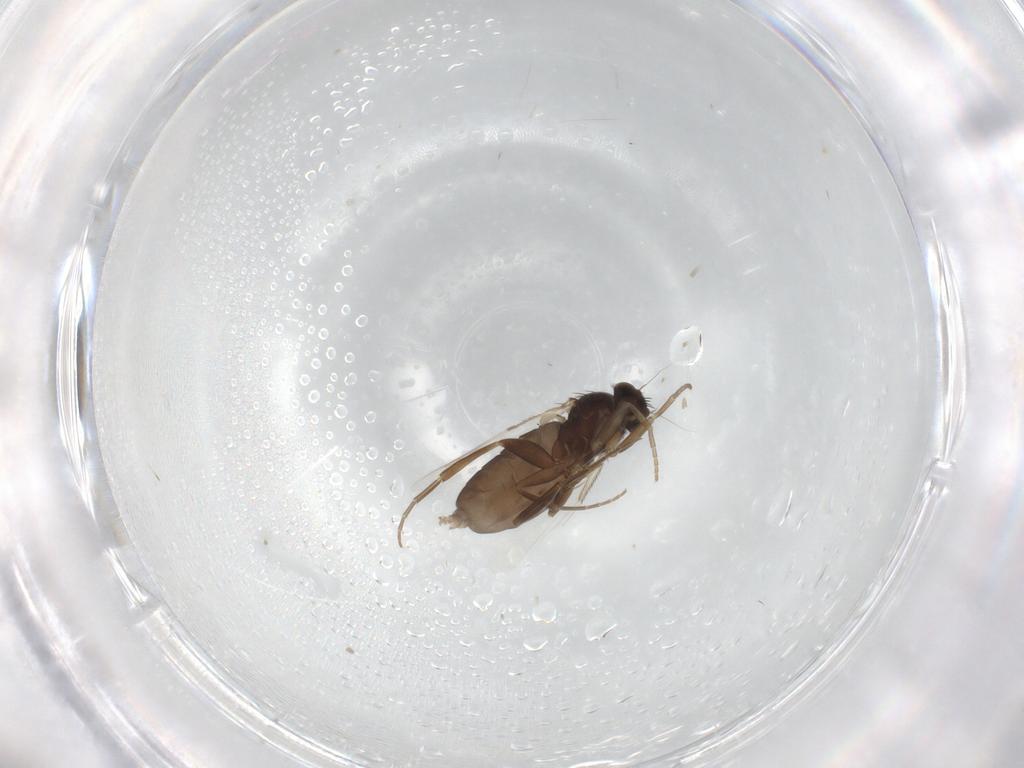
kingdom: Animalia
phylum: Arthropoda
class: Insecta
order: Diptera
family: Phoridae
